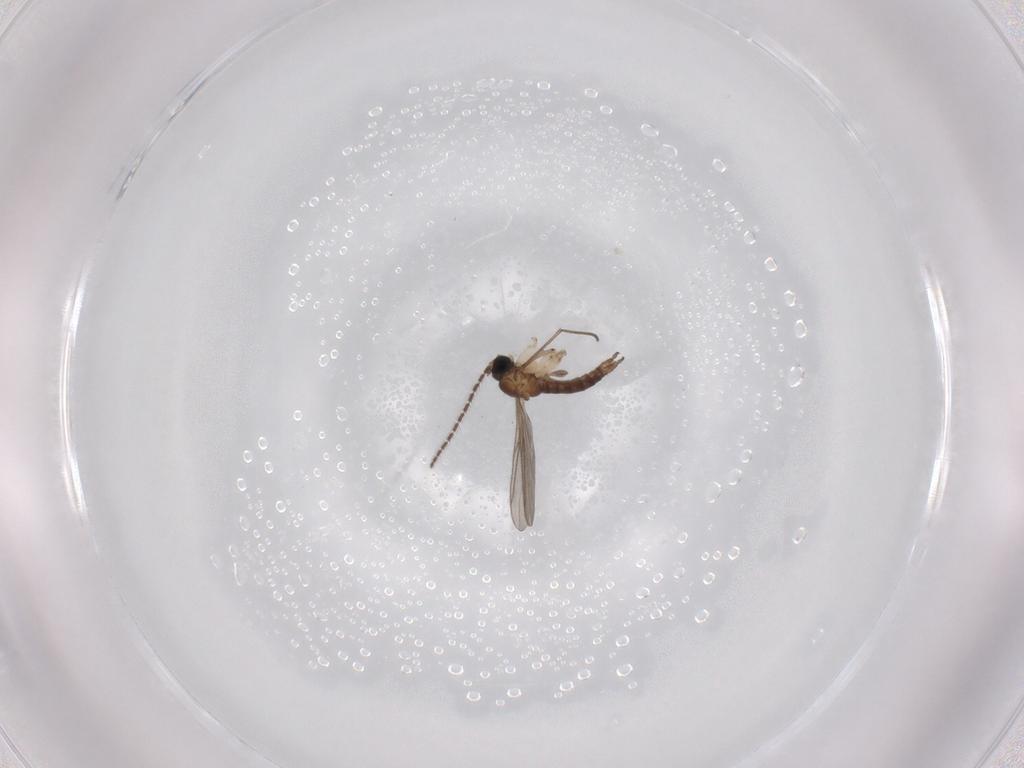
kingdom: Animalia
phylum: Arthropoda
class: Insecta
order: Diptera
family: Sciaridae
